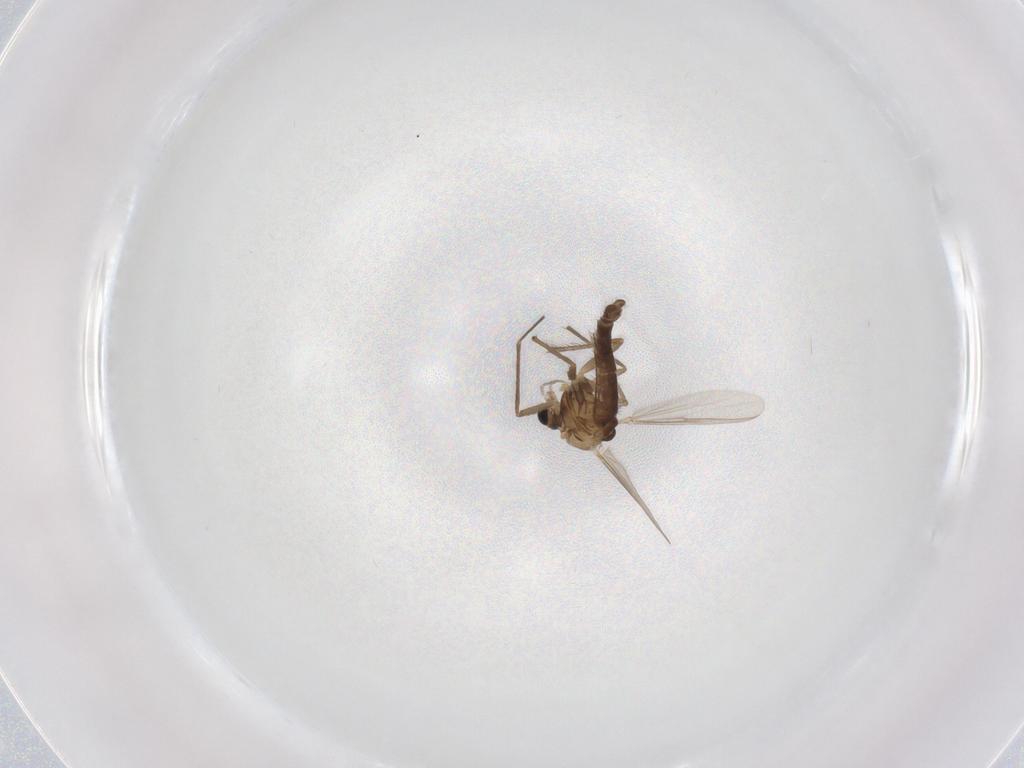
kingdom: Animalia
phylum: Arthropoda
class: Insecta
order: Diptera
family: Chironomidae
